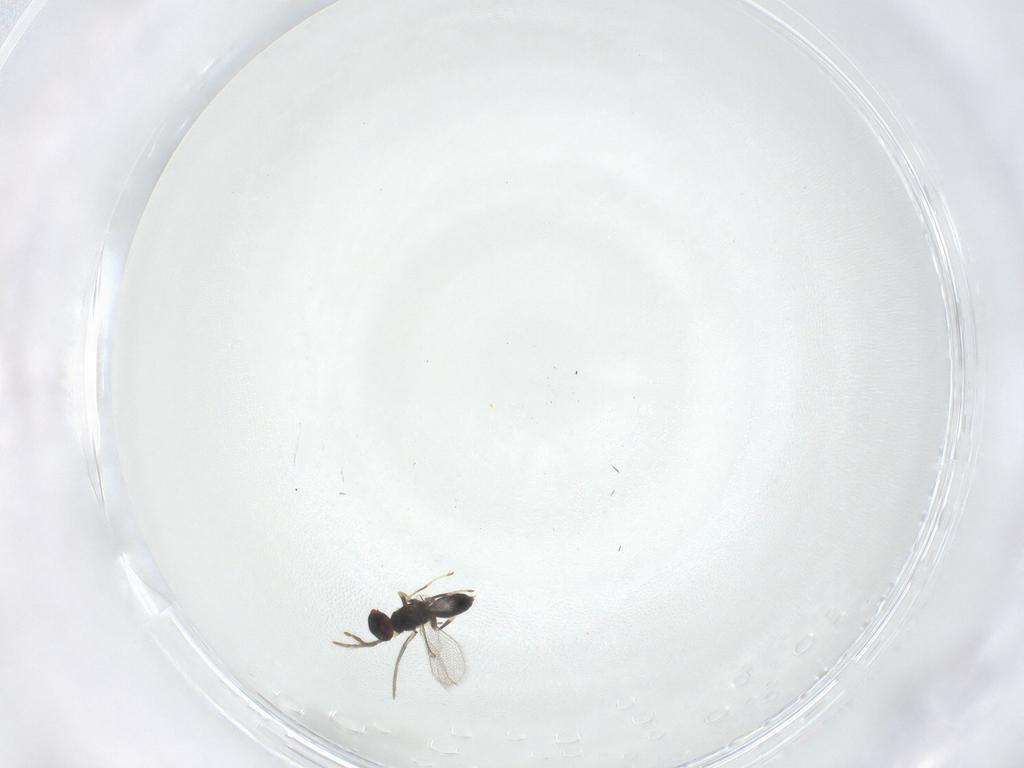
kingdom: Animalia
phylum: Arthropoda
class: Insecta
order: Hymenoptera
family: Eulophidae
